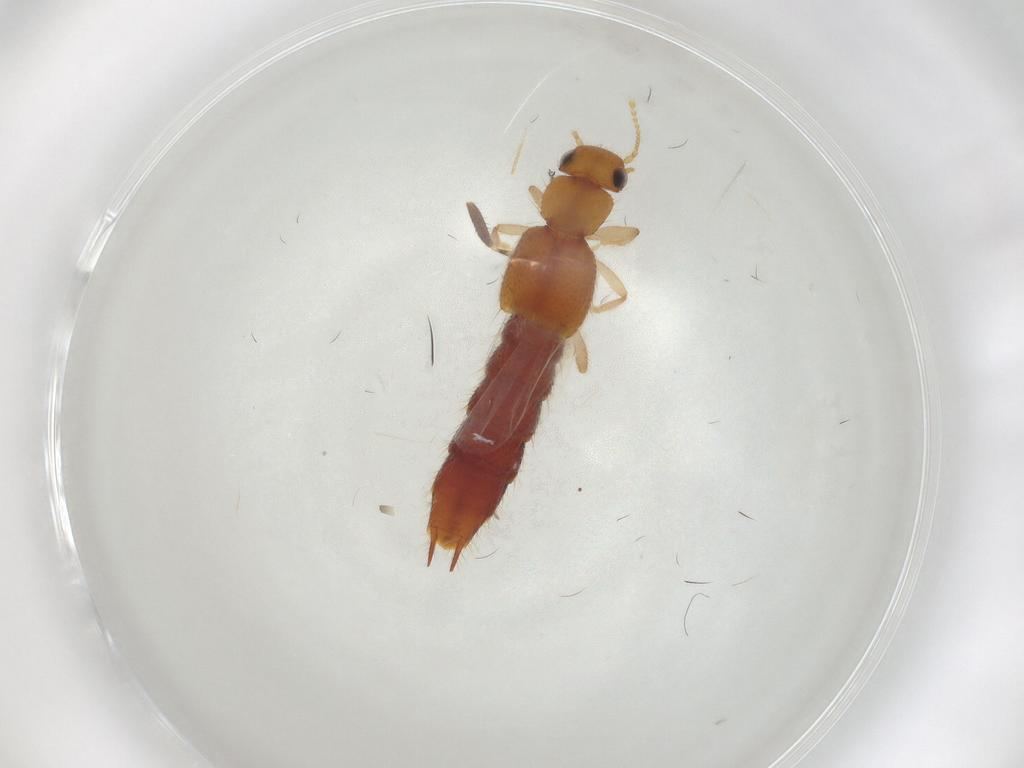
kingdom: Animalia
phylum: Arthropoda
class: Insecta
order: Coleoptera
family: Staphylinidae
